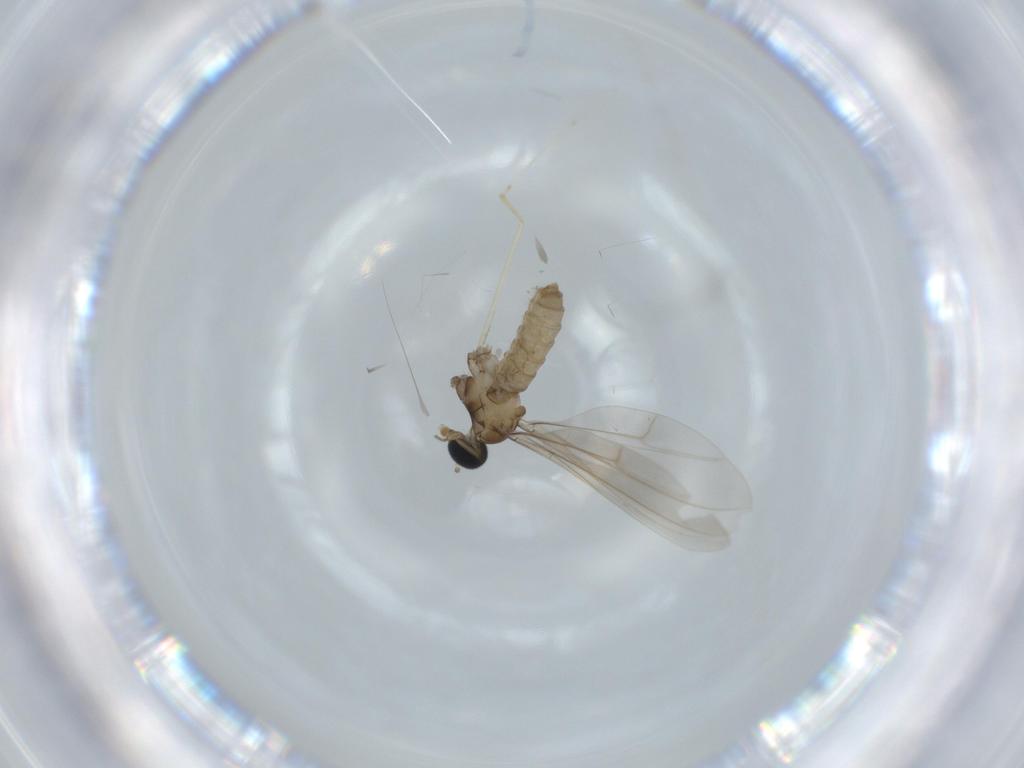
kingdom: Animalia
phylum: Arthropoda
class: Insecta
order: Diptera
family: Cecidomyiidae
